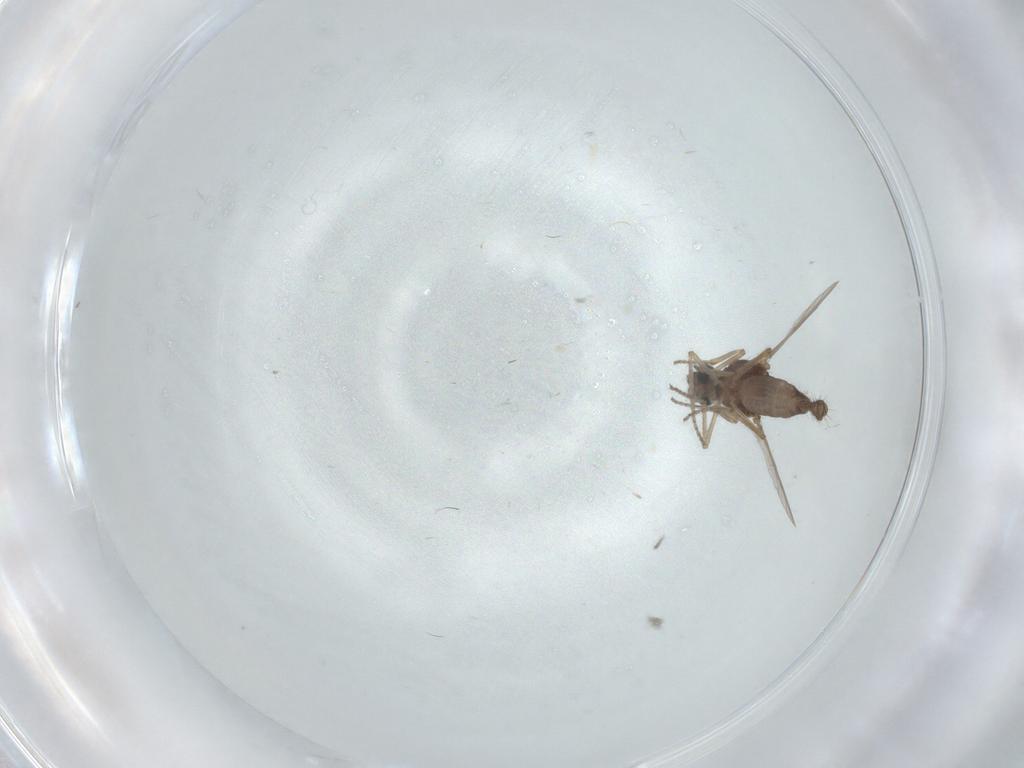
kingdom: Animalia
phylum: Arthropoda
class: Insecta
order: Diptera
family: Ceratopogonidae
